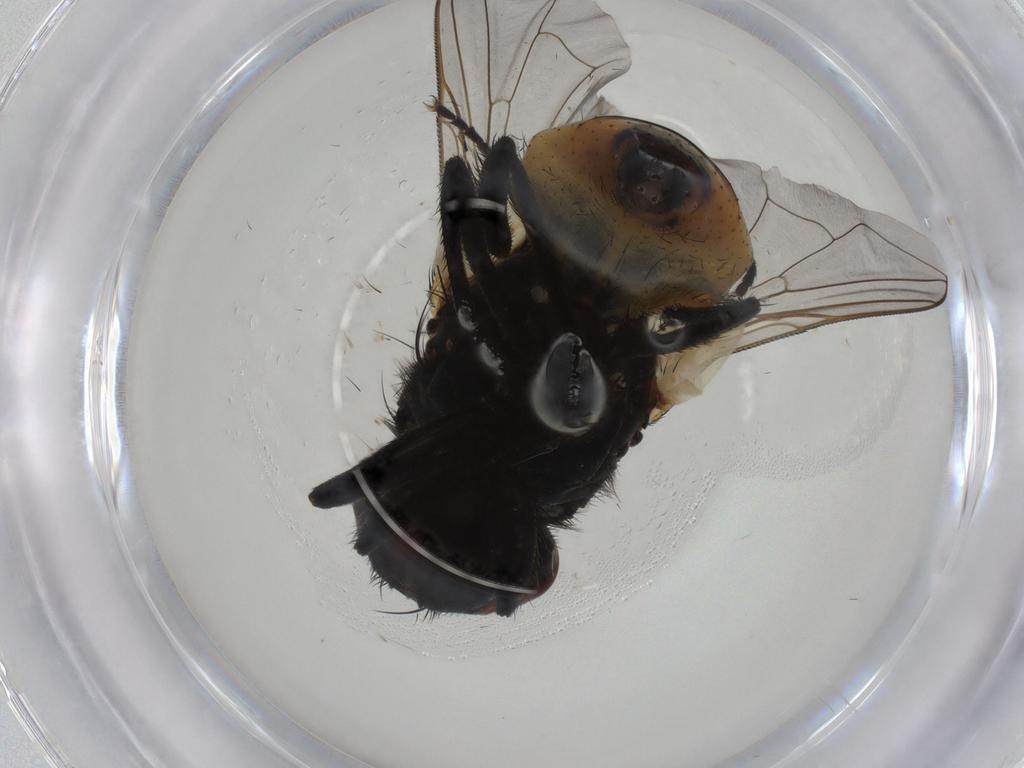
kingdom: Animalia
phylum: Arthropoda
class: Insecta
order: Diptera
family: Muscidae
